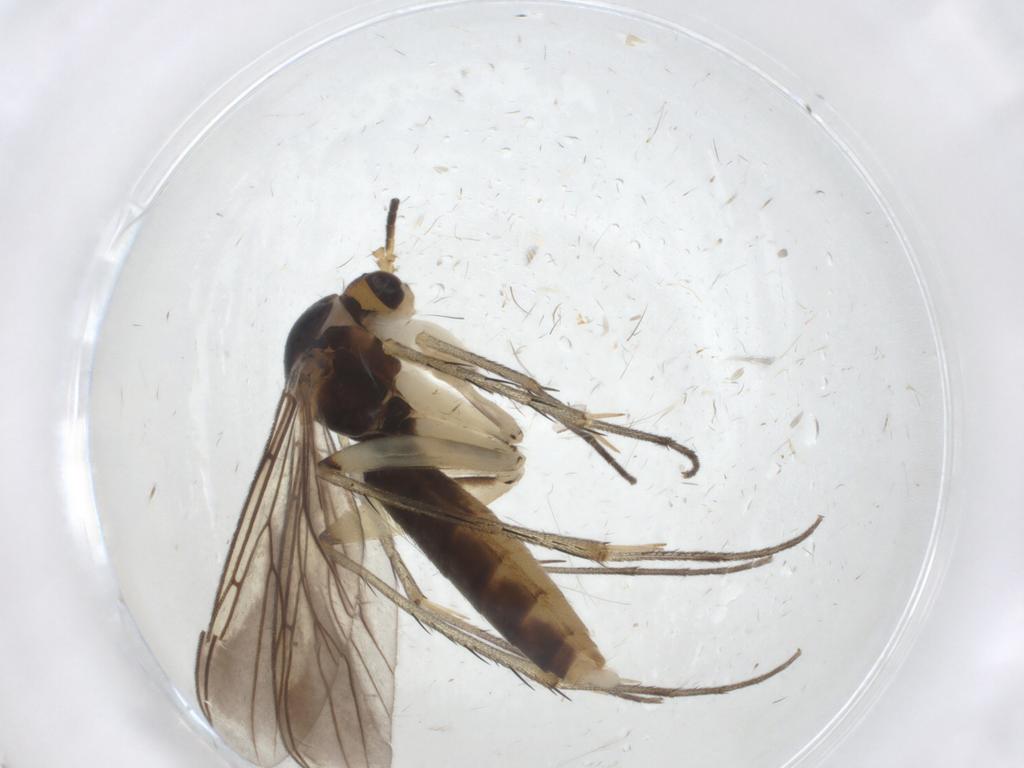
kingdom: Animalia
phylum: Arthropoda
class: Insecta
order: Diptera
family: Mycetophilidae
